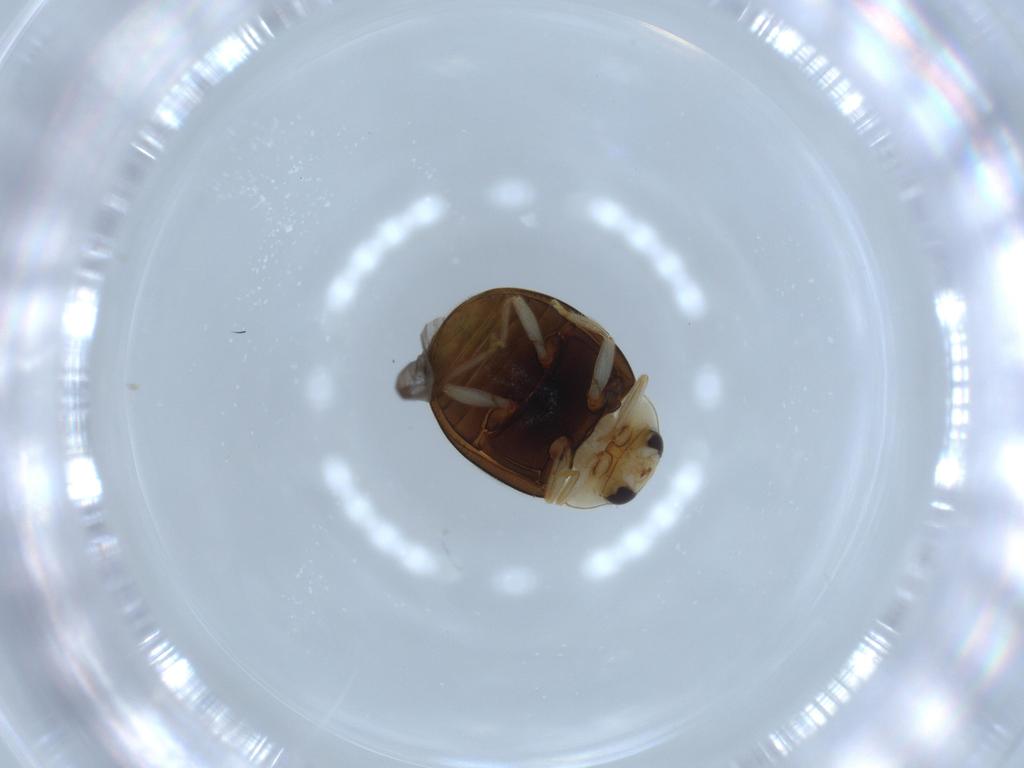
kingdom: Animalia
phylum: Arthropoda
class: Insecta
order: Coleoptera
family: Coccinellidae
